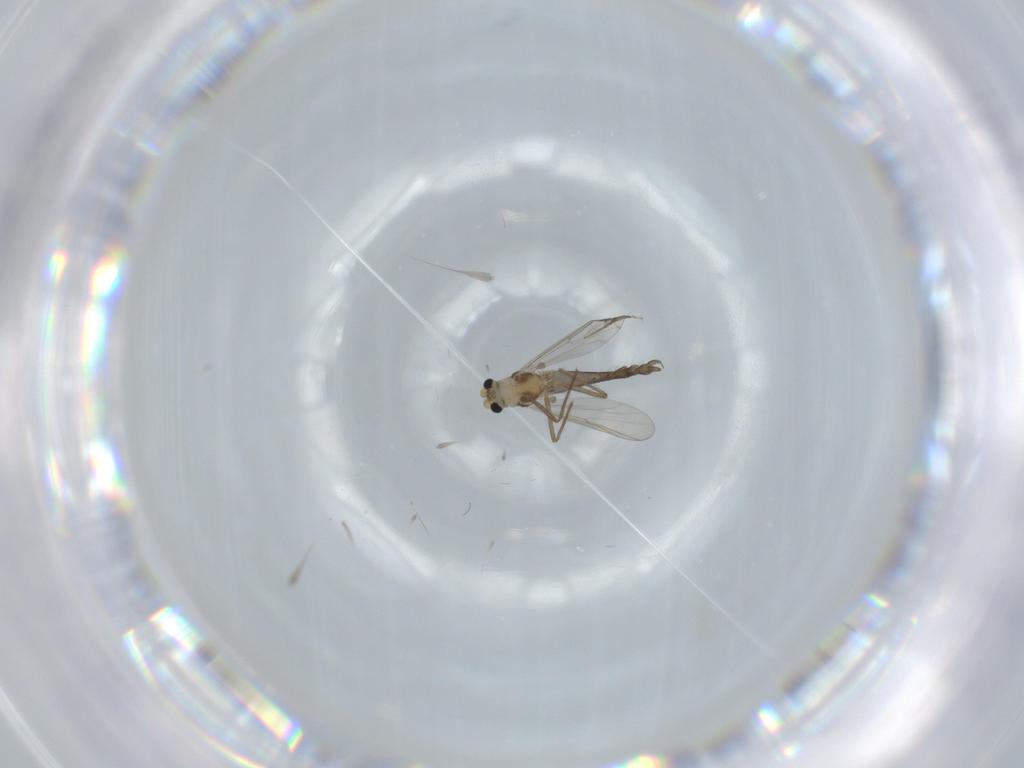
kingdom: Animalia
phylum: Arthropoda
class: Insecta
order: Diptera
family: Chironomidae
